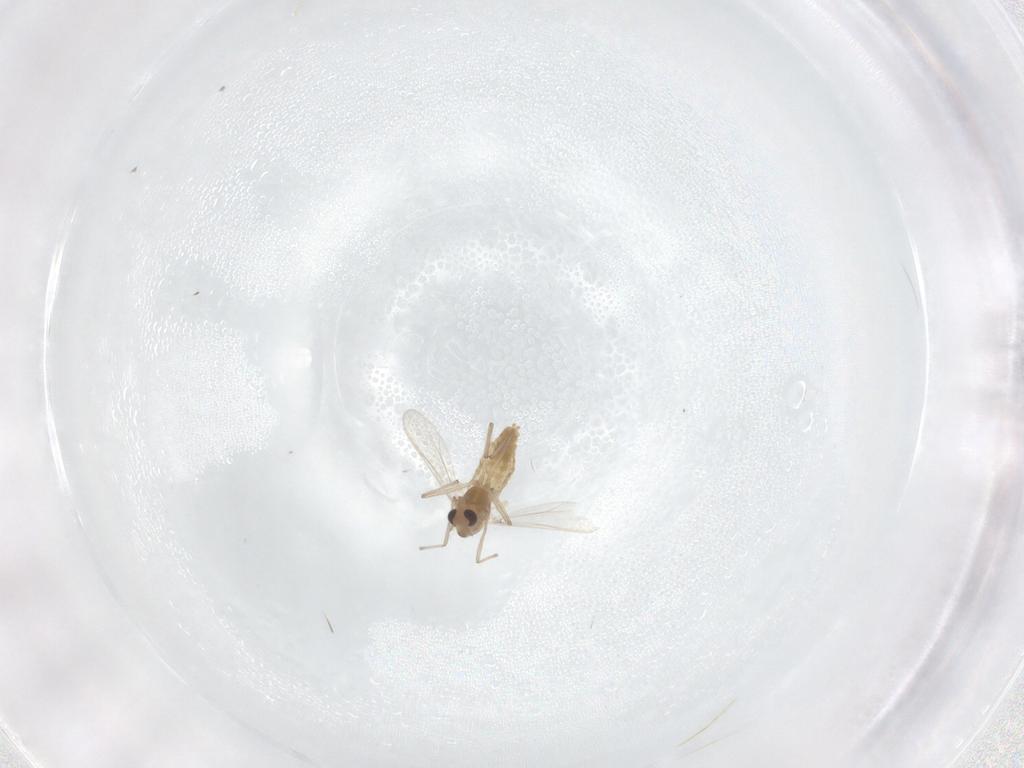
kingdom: Animalia
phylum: Arthropoda
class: Insecta
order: Diptera
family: Chironomidae
